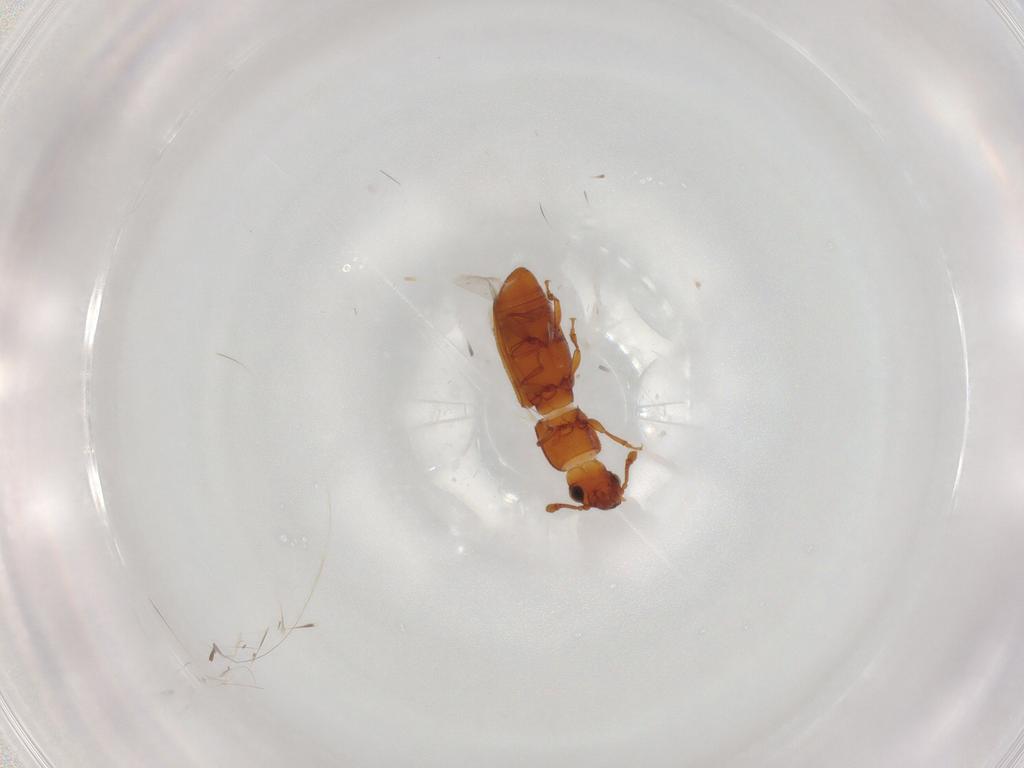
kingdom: Animalia
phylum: Arthropoda
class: Insecta
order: Coleoptera
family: Monotomidae
